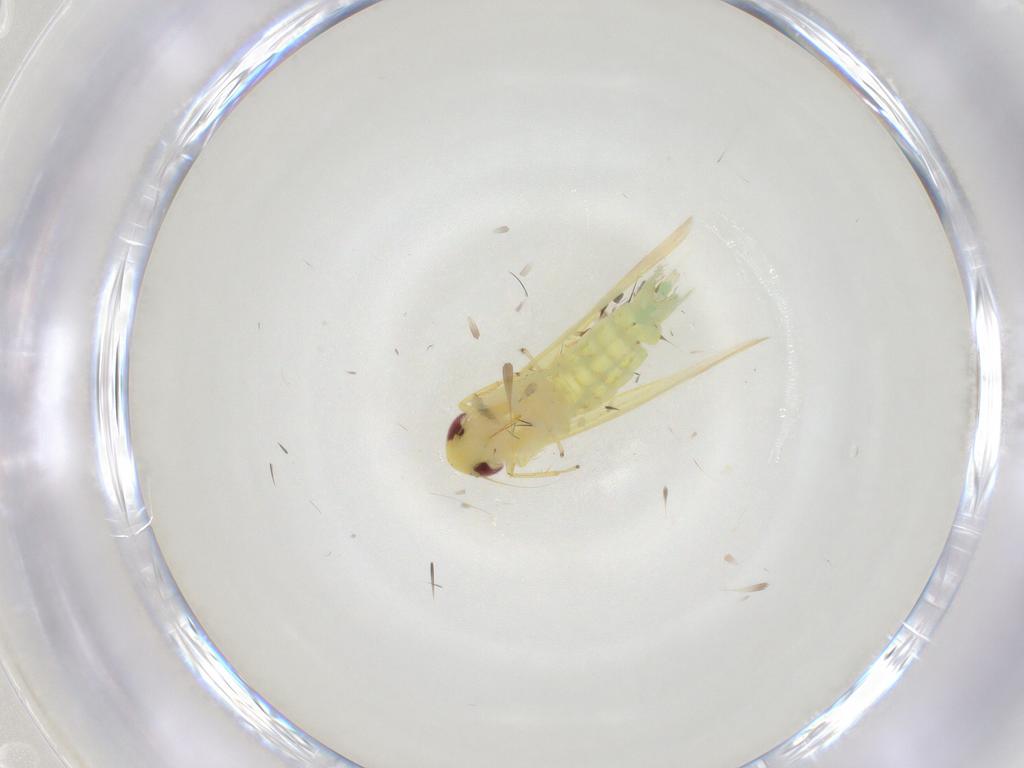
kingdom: Animalia
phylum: Arthropoda
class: Insecta
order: Hemiptera
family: Cicadellidae
